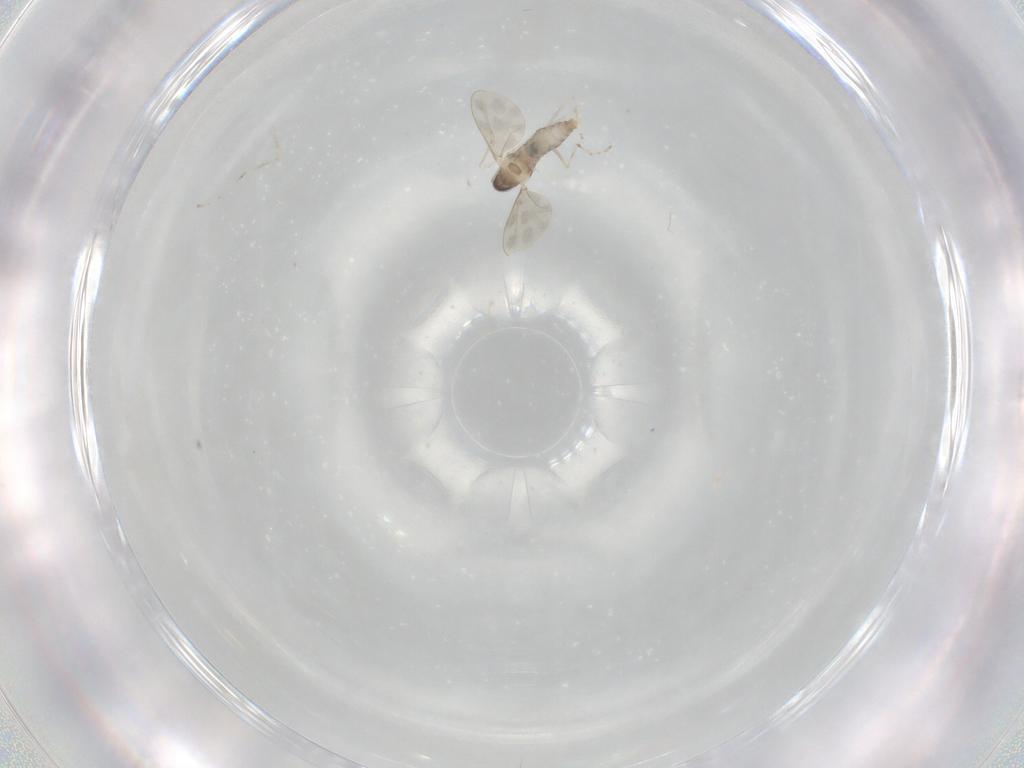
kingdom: Animalia
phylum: Arthropoda
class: Insecta
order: Diptera
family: Cecidomyiidae
